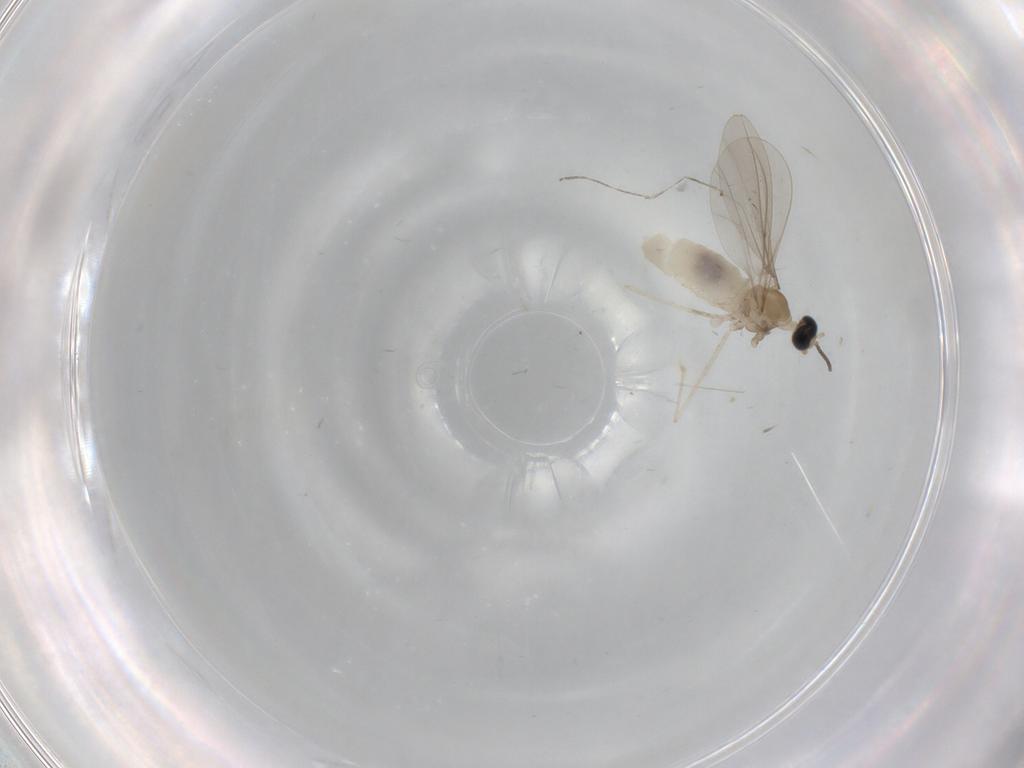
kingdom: Animalia
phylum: Arthropoda
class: Insecta
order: Diptera
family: Cecidomyiidae
